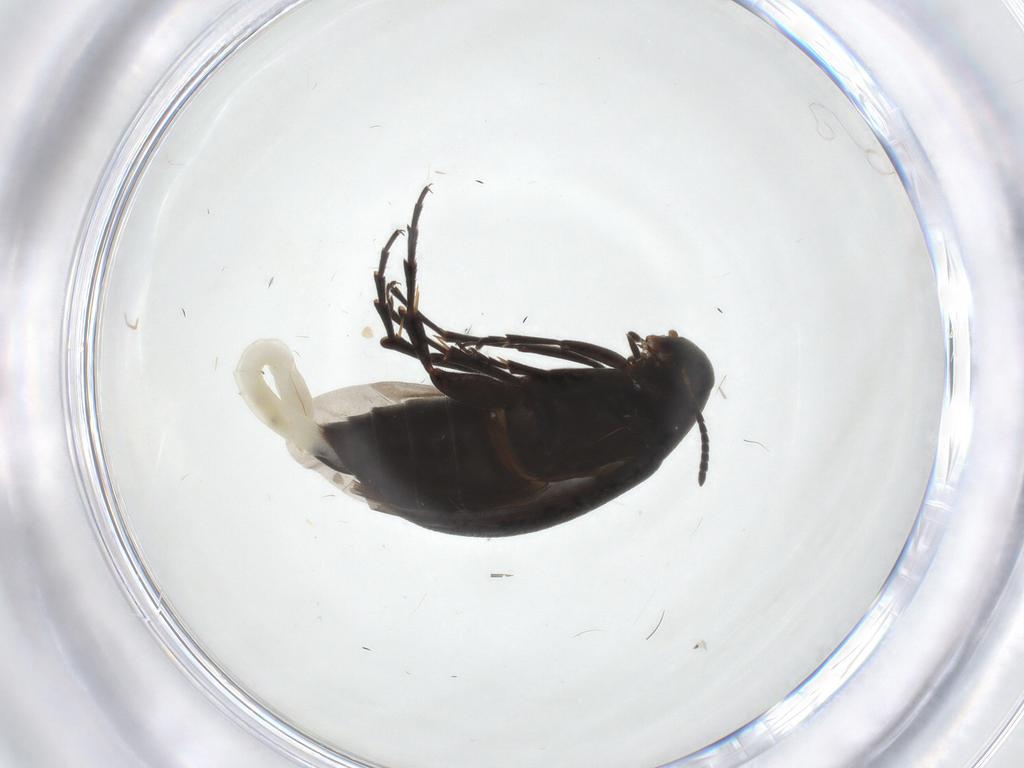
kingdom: Animalia
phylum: Arthropoda
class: Insecta
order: Coleoptera
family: Scraptiidae
